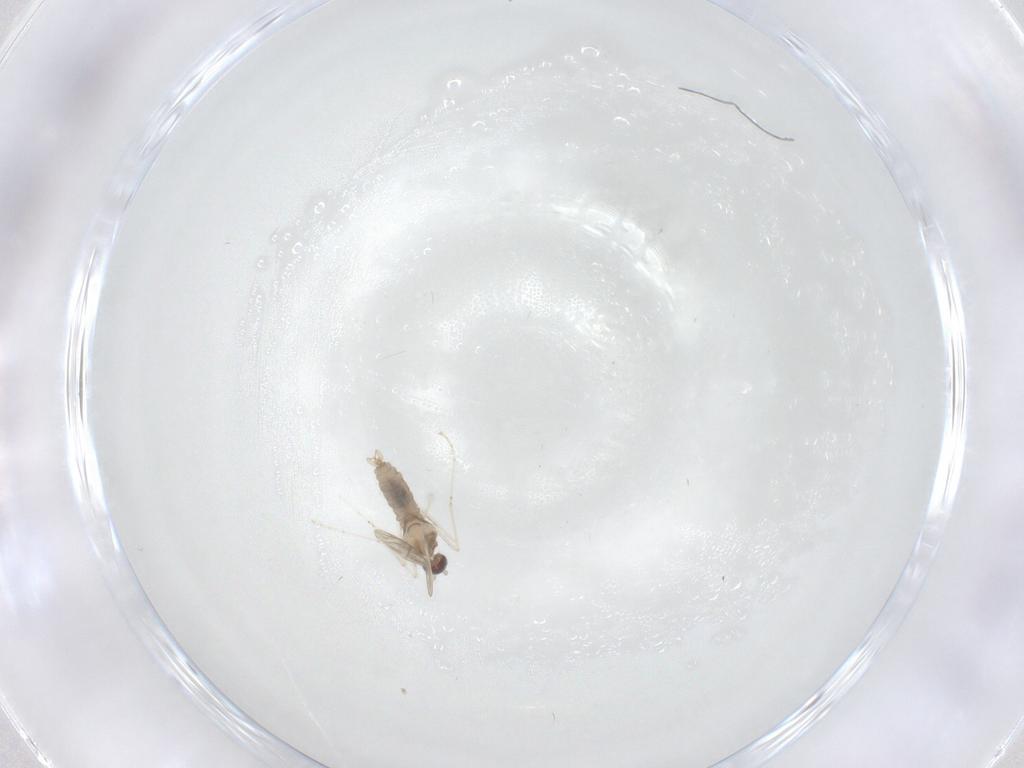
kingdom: Animalia
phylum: Arthropoda
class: Insecta
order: Diptera
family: Cecidomyiidae
